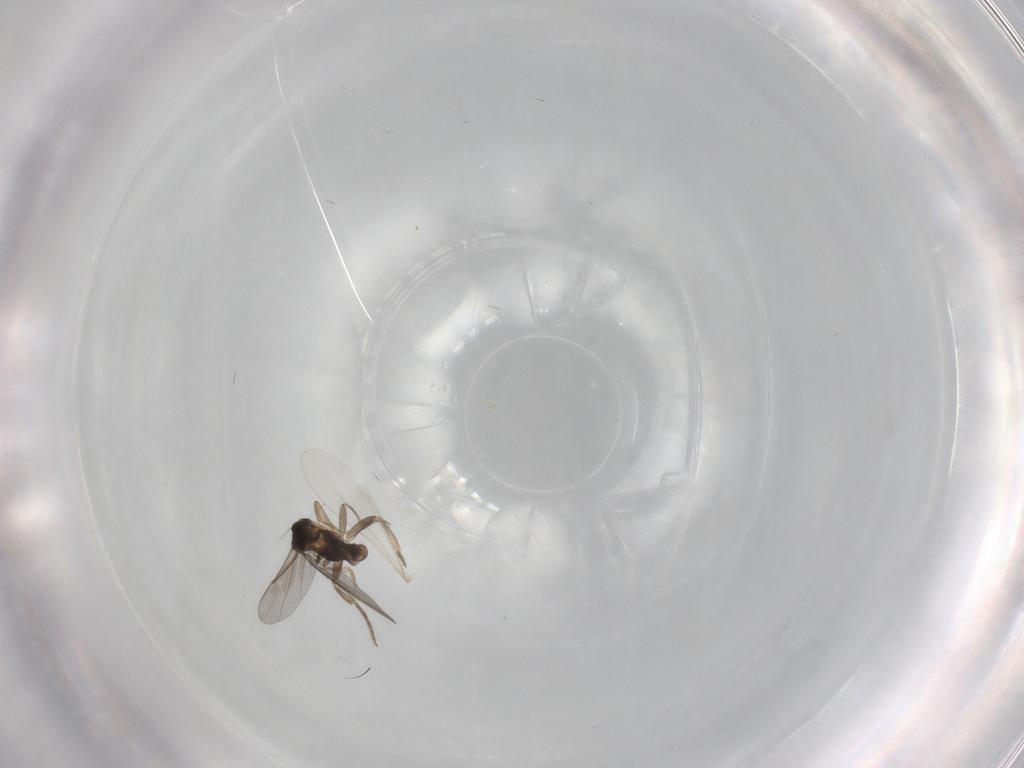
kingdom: Animalia
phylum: Arthropoda
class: Insecta
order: Diptera
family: Cecidomyiidae
